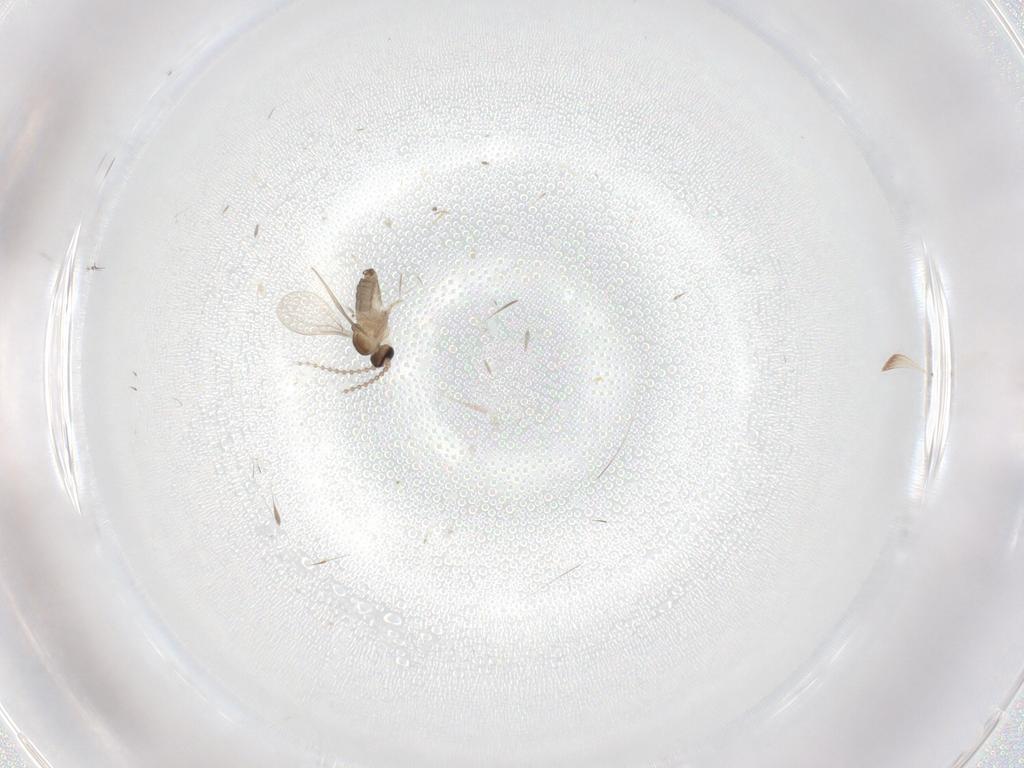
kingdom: Animalia
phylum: Arthropoda
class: Insecta
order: Diptera
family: Cecidomyiidae
